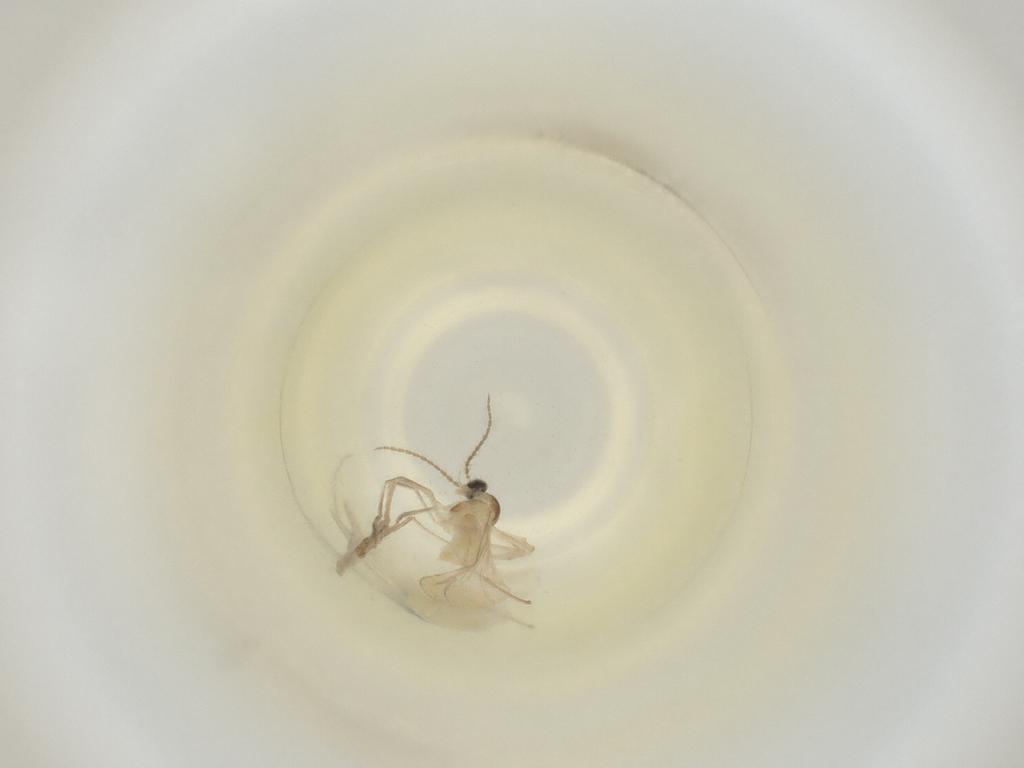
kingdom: Animalia
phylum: Arthropoda
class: Insecta
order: Diptera
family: Cecidomyiidae
